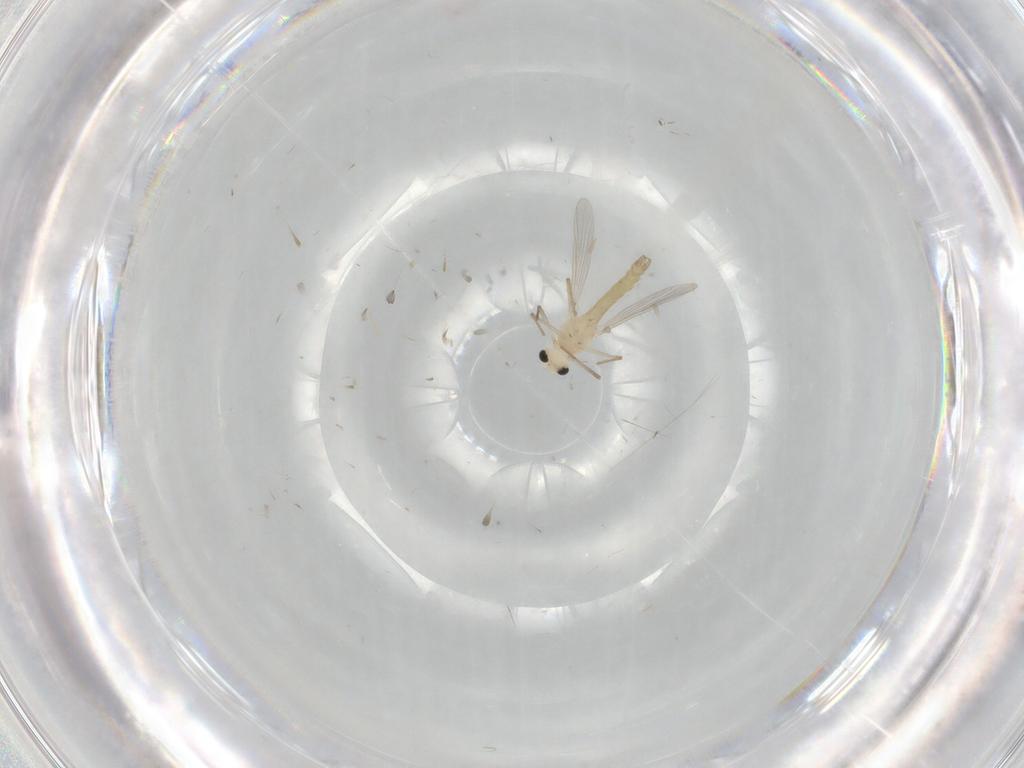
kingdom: Animalia
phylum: Arthropoda
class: Insecta
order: Diptera
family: Chironomidae
